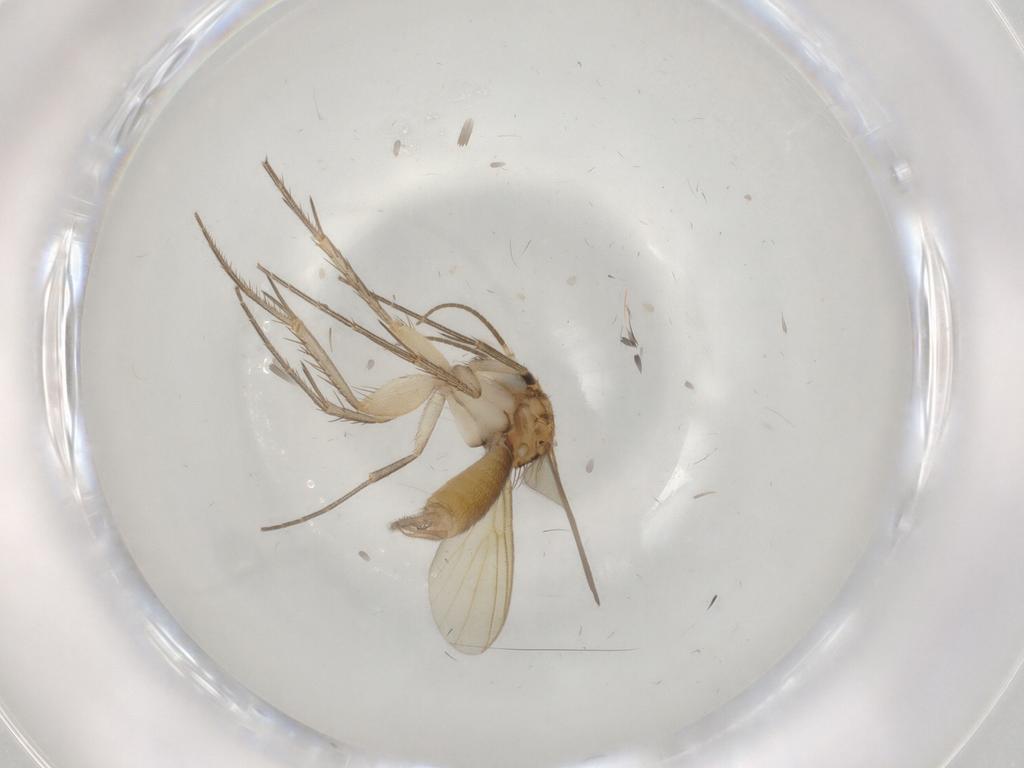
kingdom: Animalia
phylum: Arthropoda
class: Insecta
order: Diptera
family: Mycetophilidae
